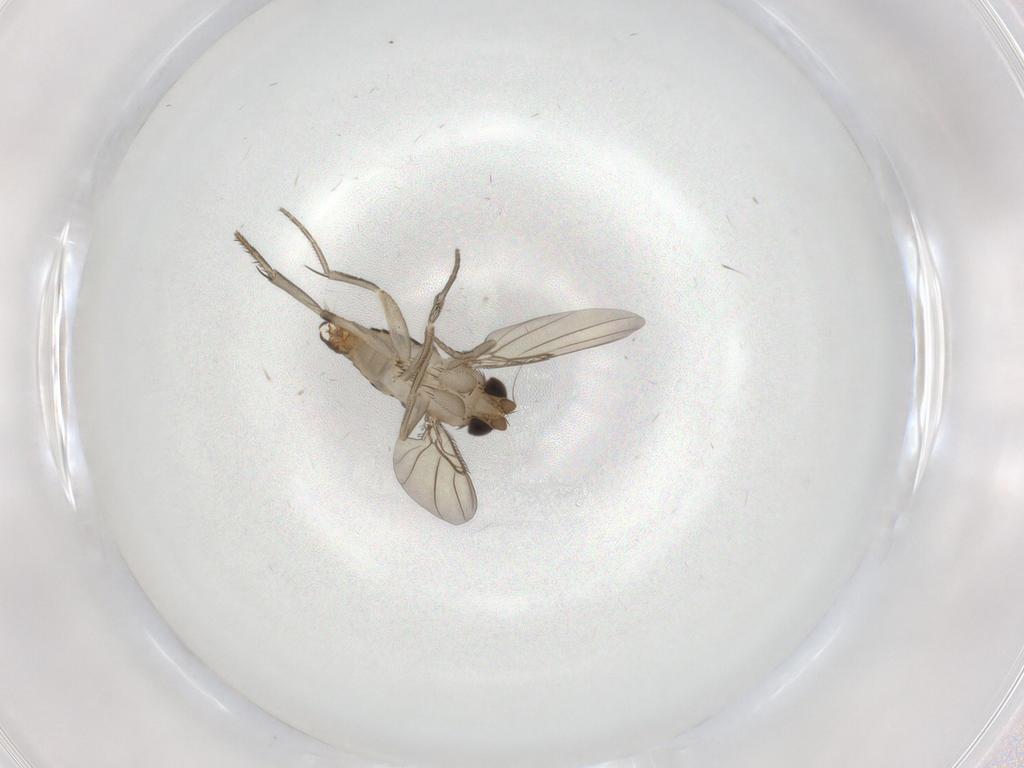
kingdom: Animalia
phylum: Arthropoda
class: Insecta
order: Diptera
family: Phoridae
